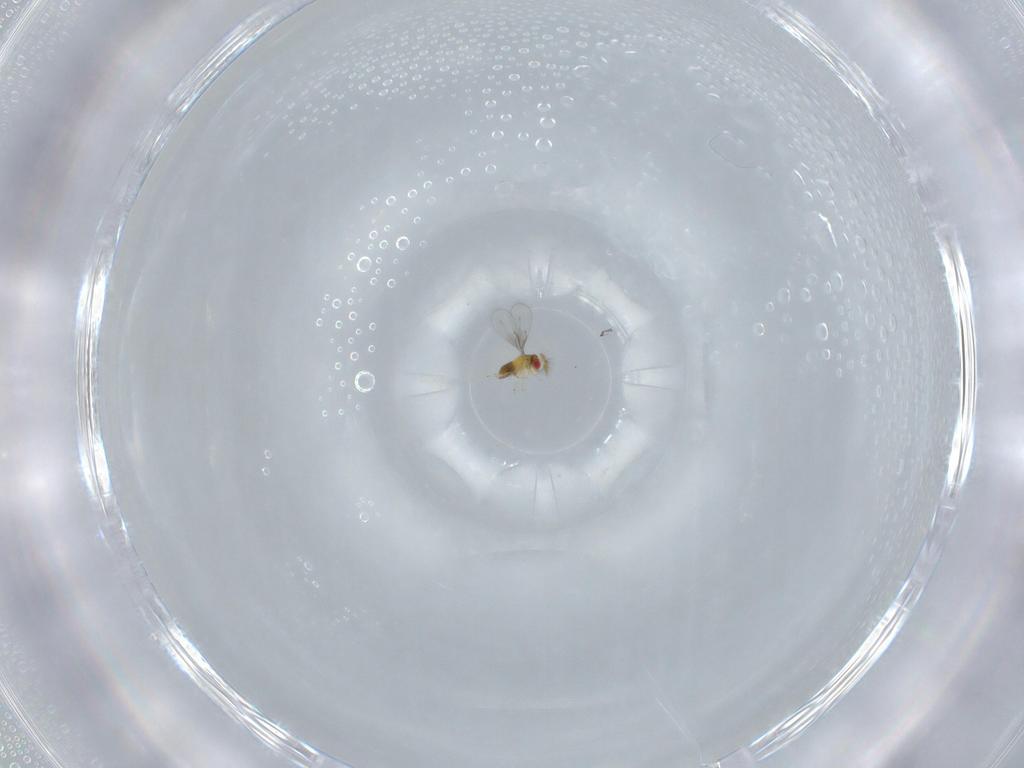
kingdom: Animalia
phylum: Arthropoda
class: Insecta
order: Hymenoptera
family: Trichogrammatidae
